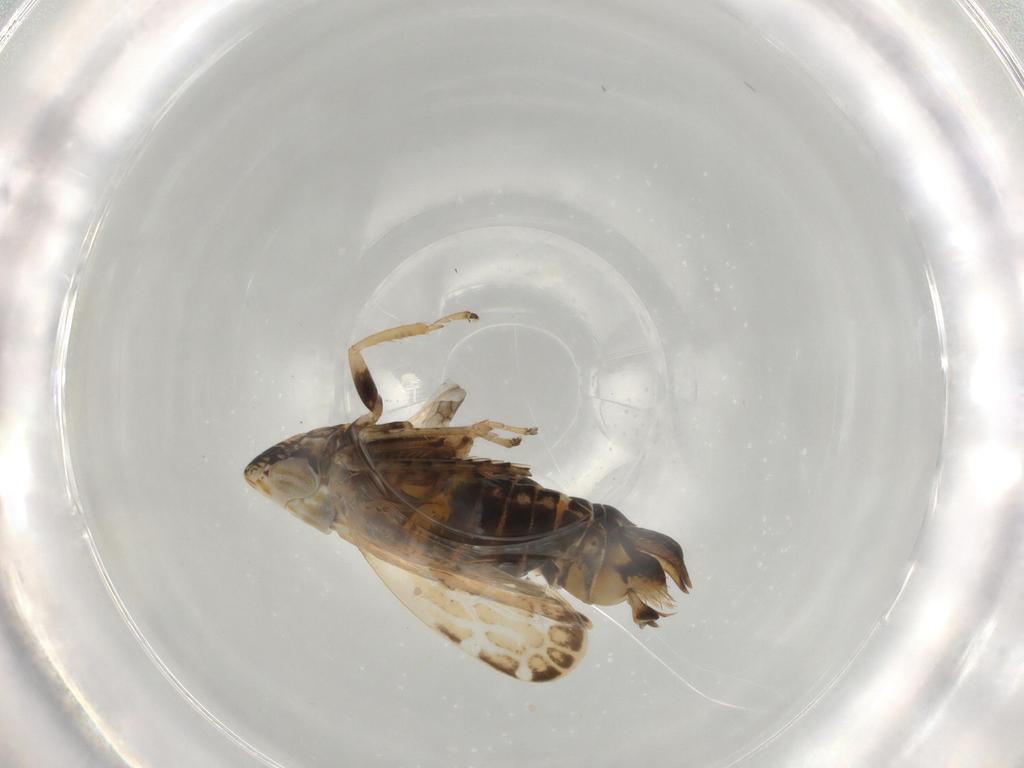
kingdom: Animalia
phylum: Arthropoda
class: Insecta
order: Hemiptera
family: Cicadellidae
